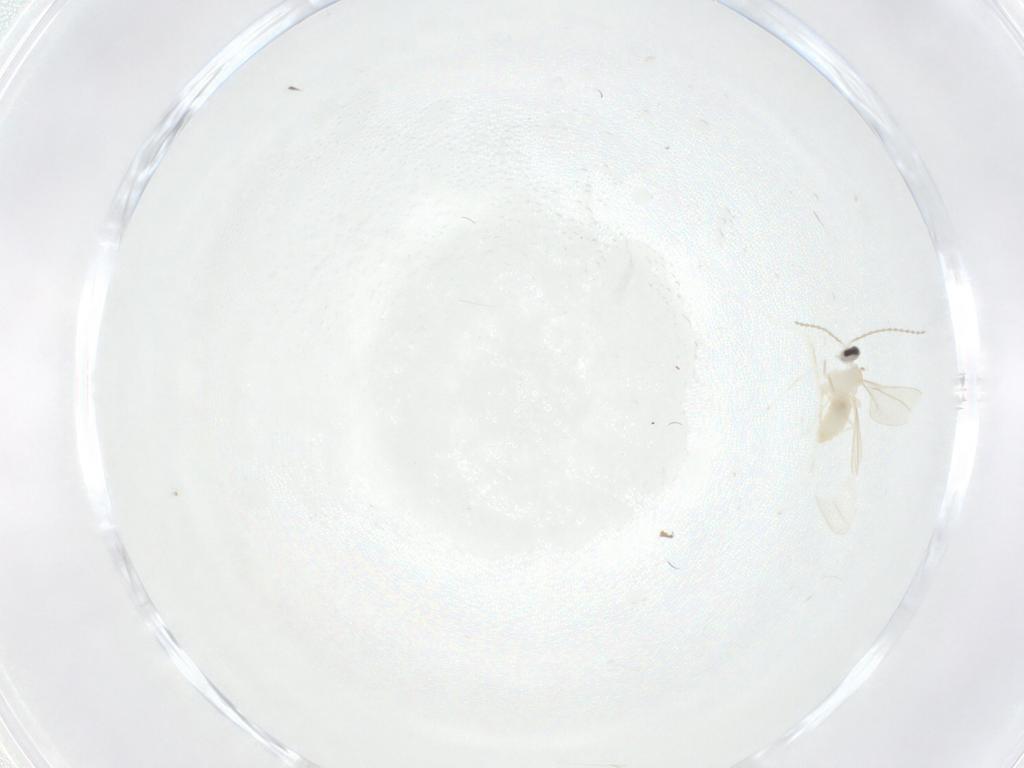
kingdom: Animalia
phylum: Arthropoda
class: Insecta
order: Diptera
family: Cecidomyiidae
